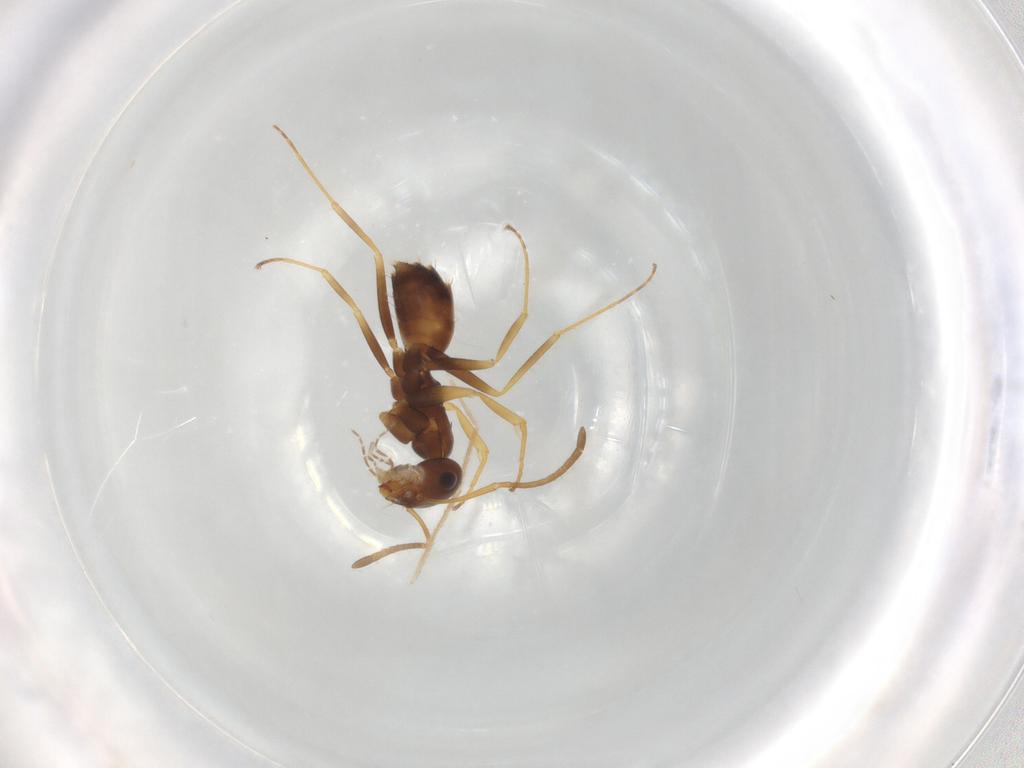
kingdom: Animalia
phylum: Arthropoda
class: Insecta
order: Hymenoptera
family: Formicidae
